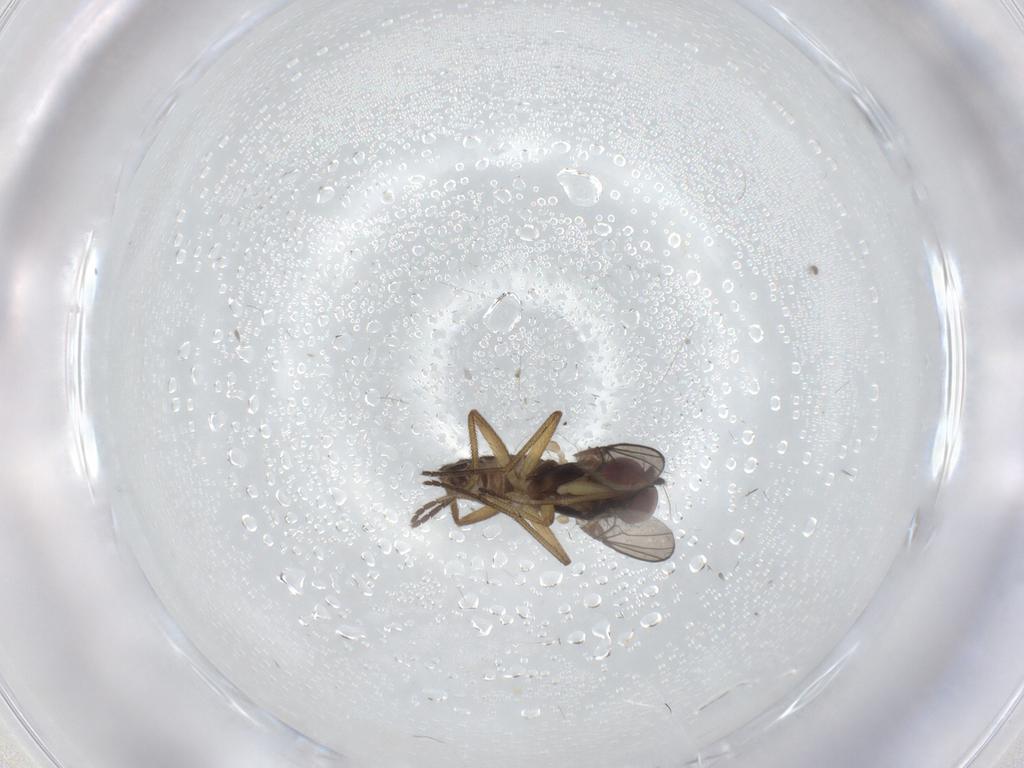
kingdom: Animalia
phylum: Arthropoda
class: Insecta
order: Diptera
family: Dolichopodidae
